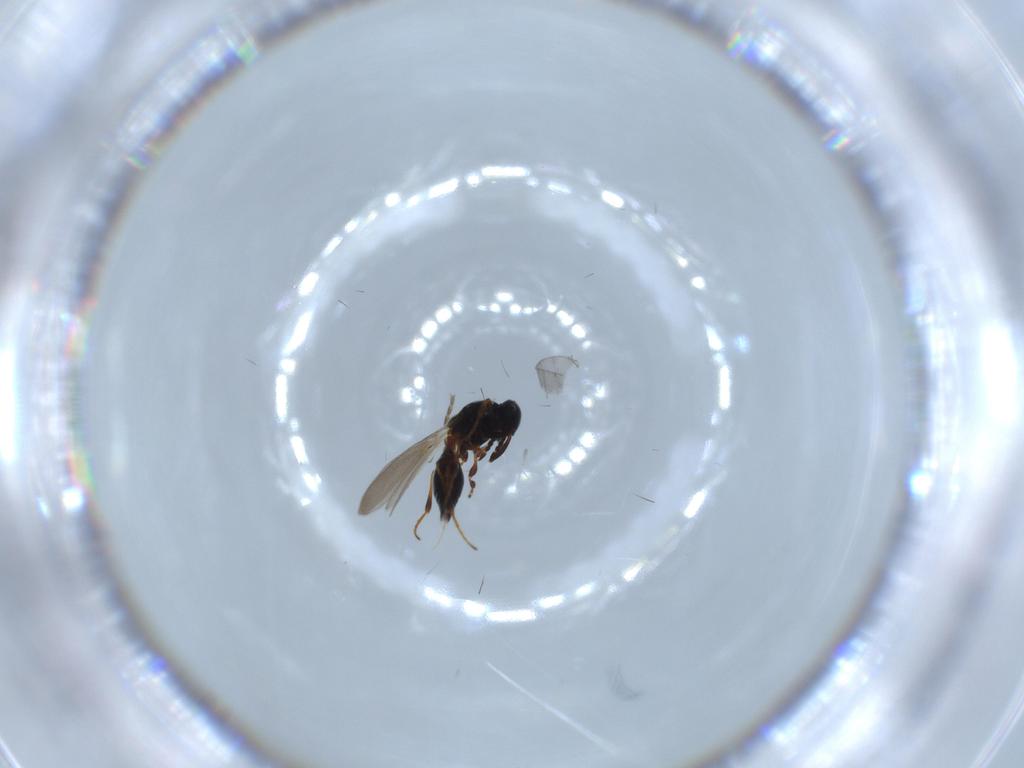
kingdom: Animalia
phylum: Arthropoda
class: Insecta
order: Hymenoptera
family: Platygastridae
